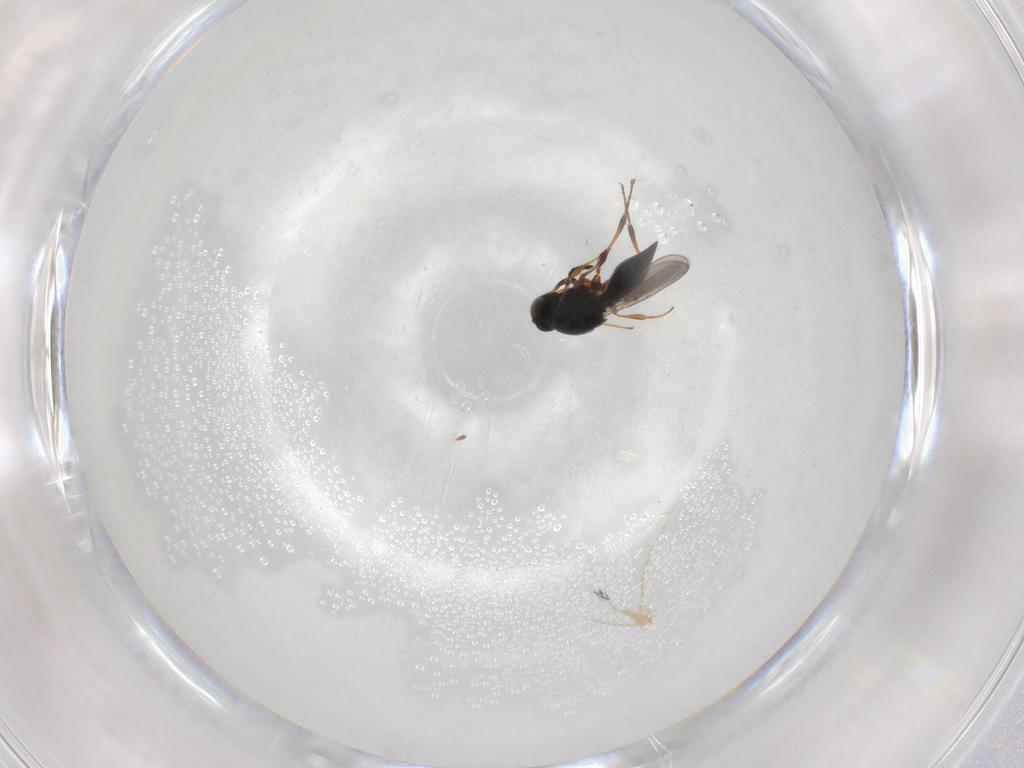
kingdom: Animalia
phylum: Arthropoda
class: Insecta
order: Hymenoptera
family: Platygastridae
